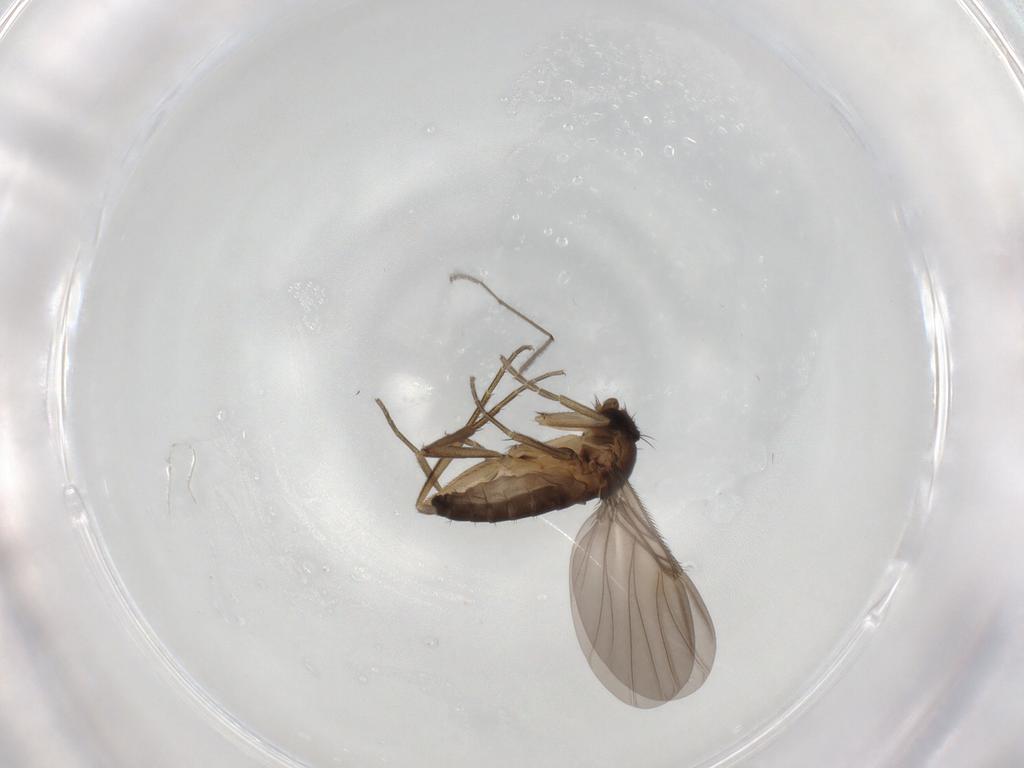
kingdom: Animalia
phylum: Arthropoda
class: Insecta
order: Diptera
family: Phoridae
